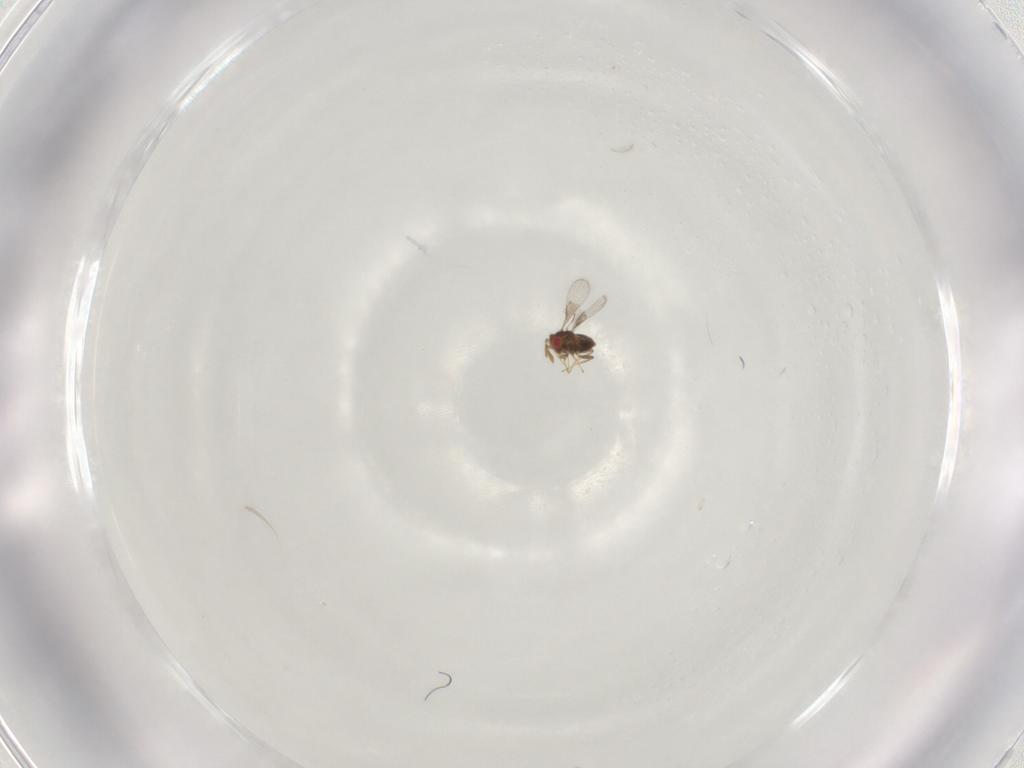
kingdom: Animalia
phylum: Arthropoda
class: Insecta
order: Hymenoptera
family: Trichogrammatidae
